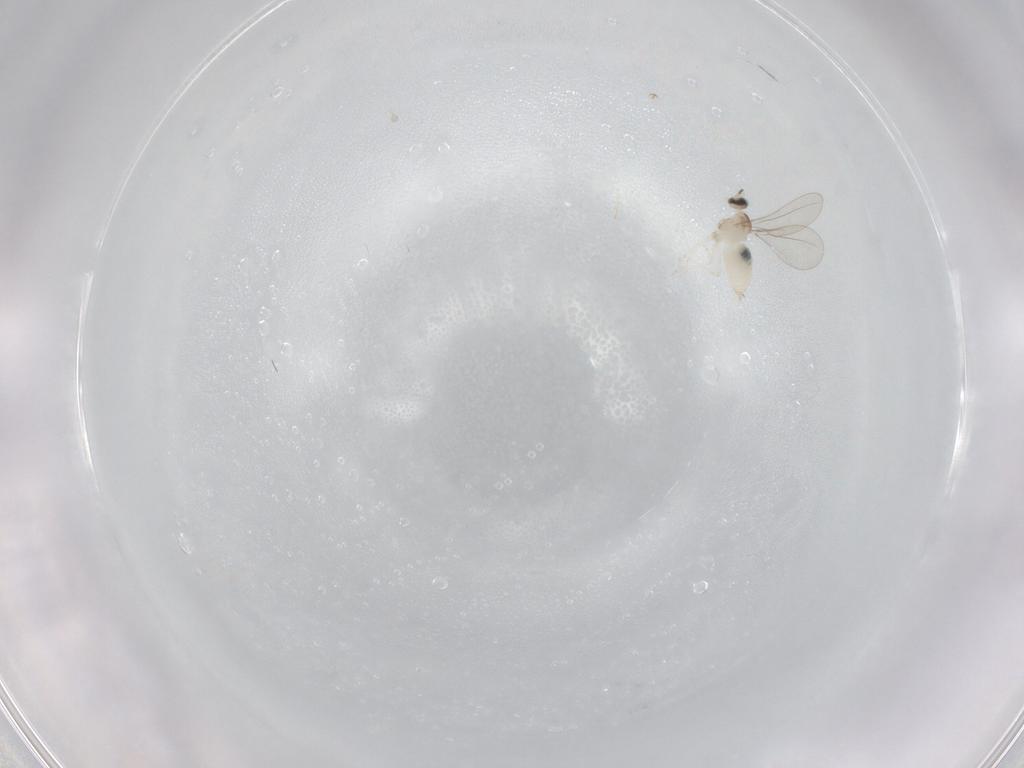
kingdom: Animalia
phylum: Arthropoda
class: Insecta
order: Diptera
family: Cecidomyiidae
